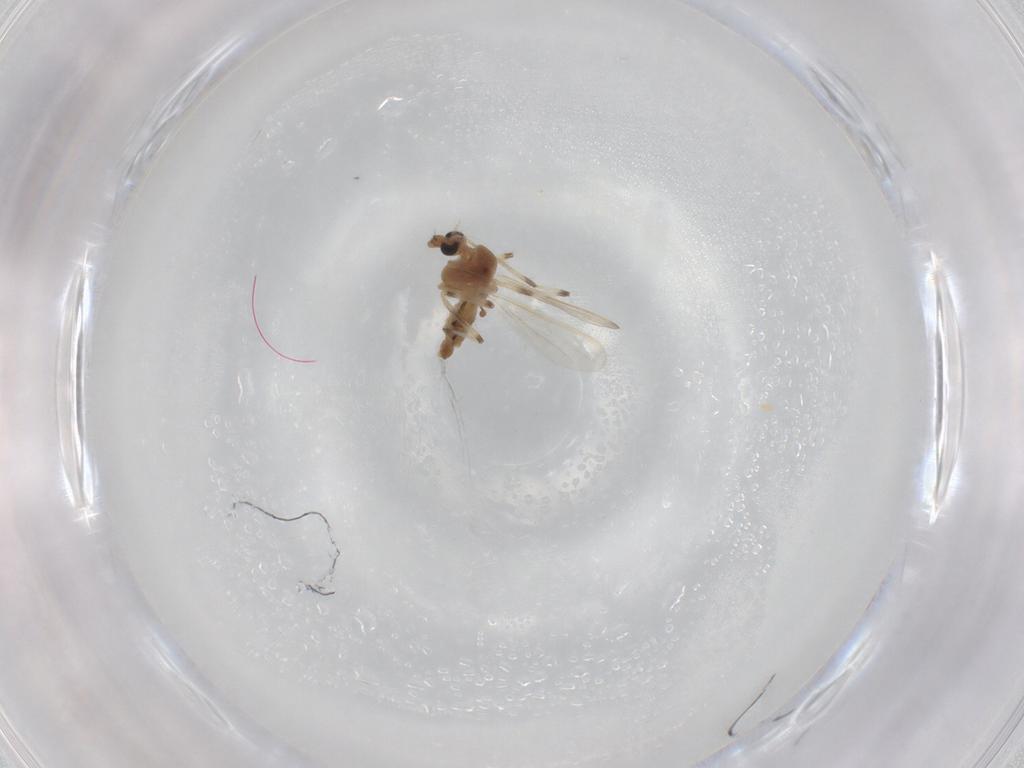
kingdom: Animalia
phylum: Arthropoda
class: Insecta
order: Diptera
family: Chironomidae
